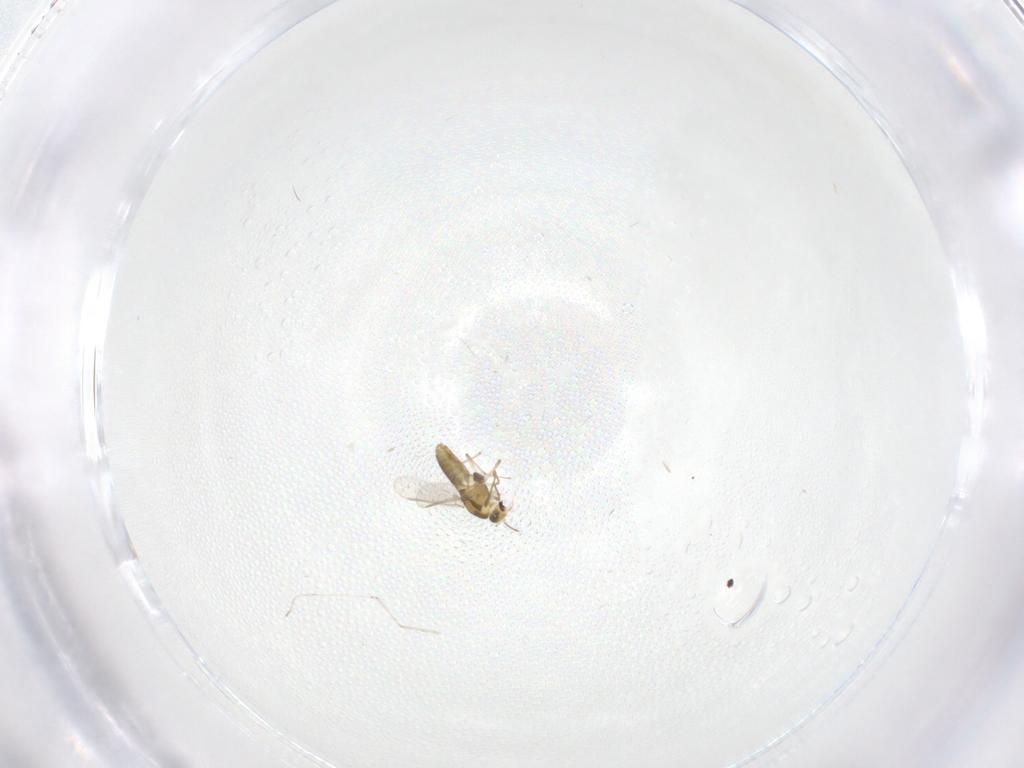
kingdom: Animalia
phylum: Arthropoda
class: Insecta
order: Diptera
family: Chironomidae
